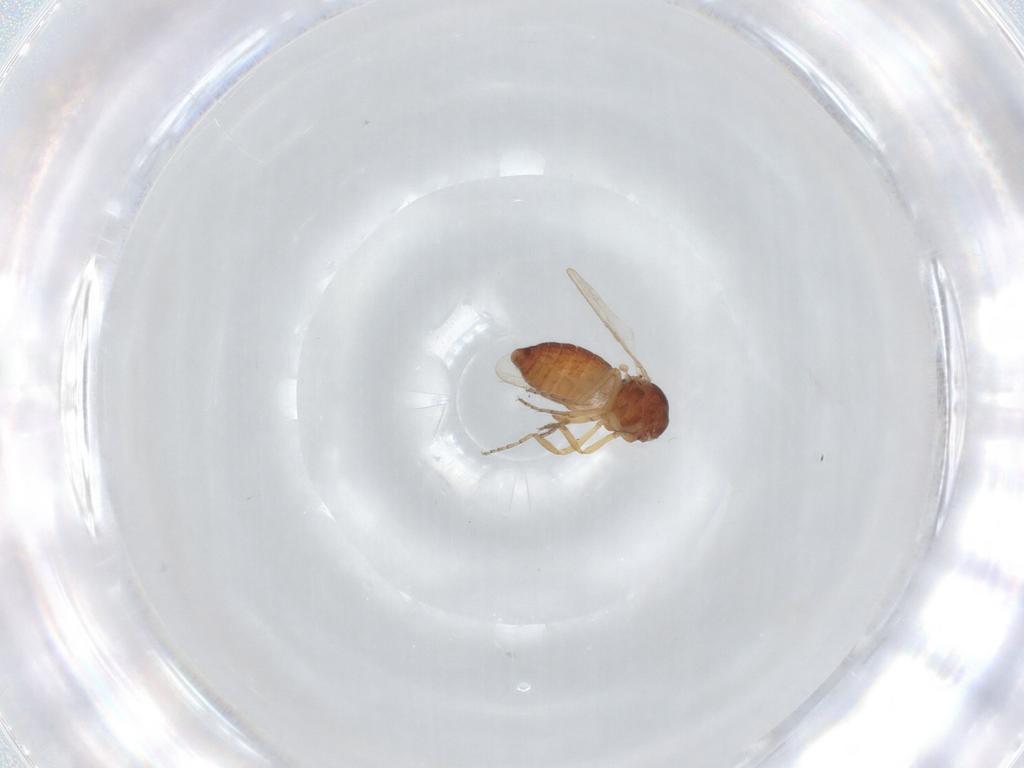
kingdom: Animalia
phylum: Arthropoda
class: Insecta
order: Diptera
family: Ceratopogonidae
